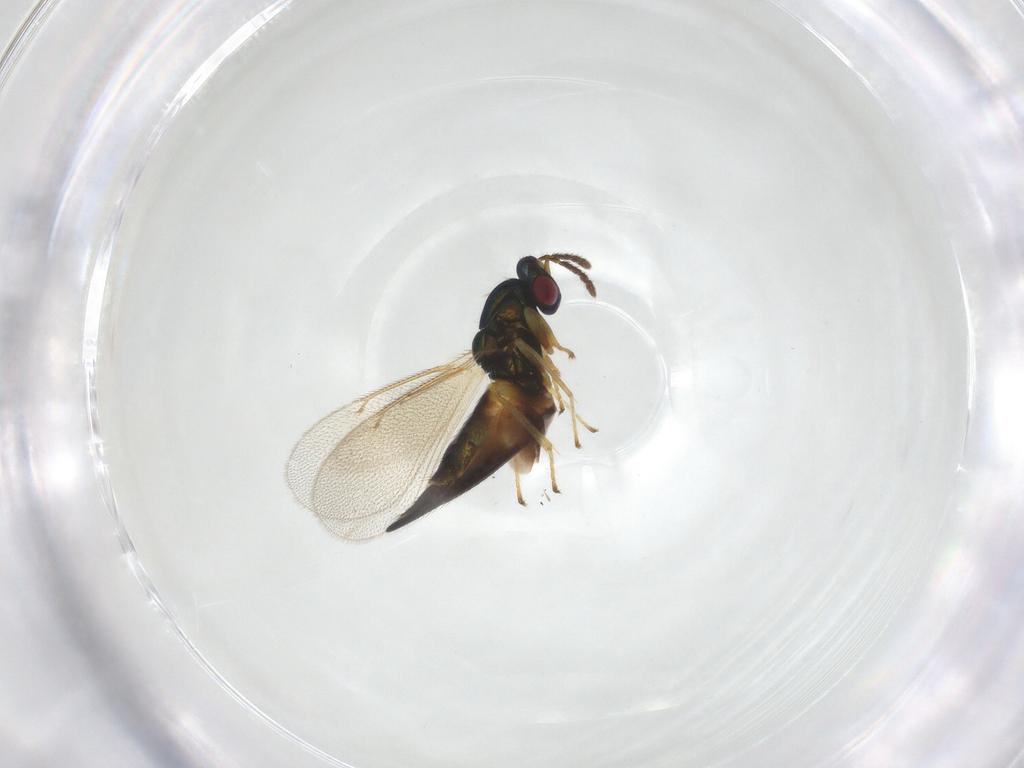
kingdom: Animalia
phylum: Arthropoda
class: Insecta
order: Hymenoptera
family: Eulophidae
